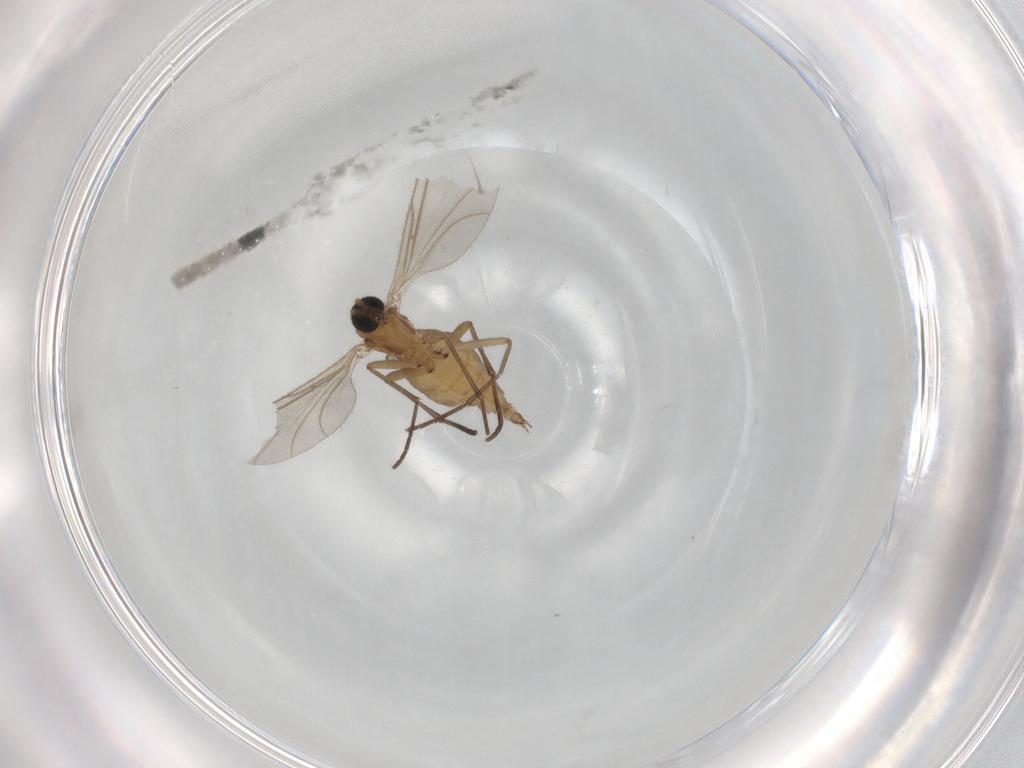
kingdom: Animalia
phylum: Arthropoda
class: Insecta
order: Diptera
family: Sciaridae
